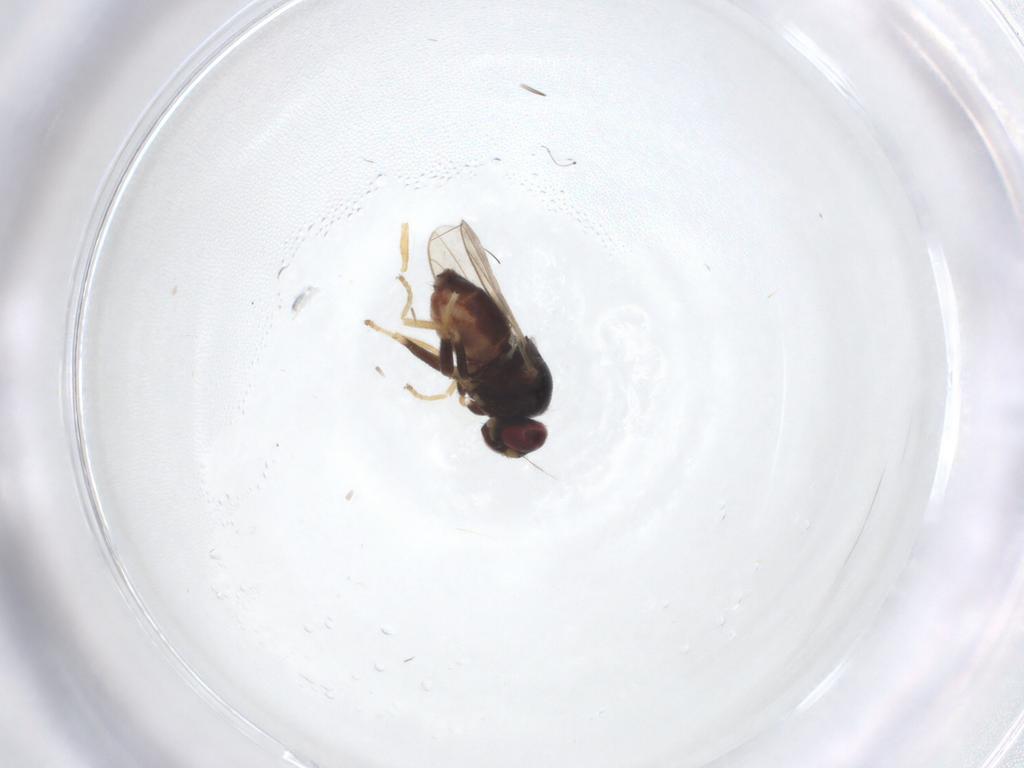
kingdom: Animalia
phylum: Arthropoda
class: Insecta
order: Diptera
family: Chloropidae
